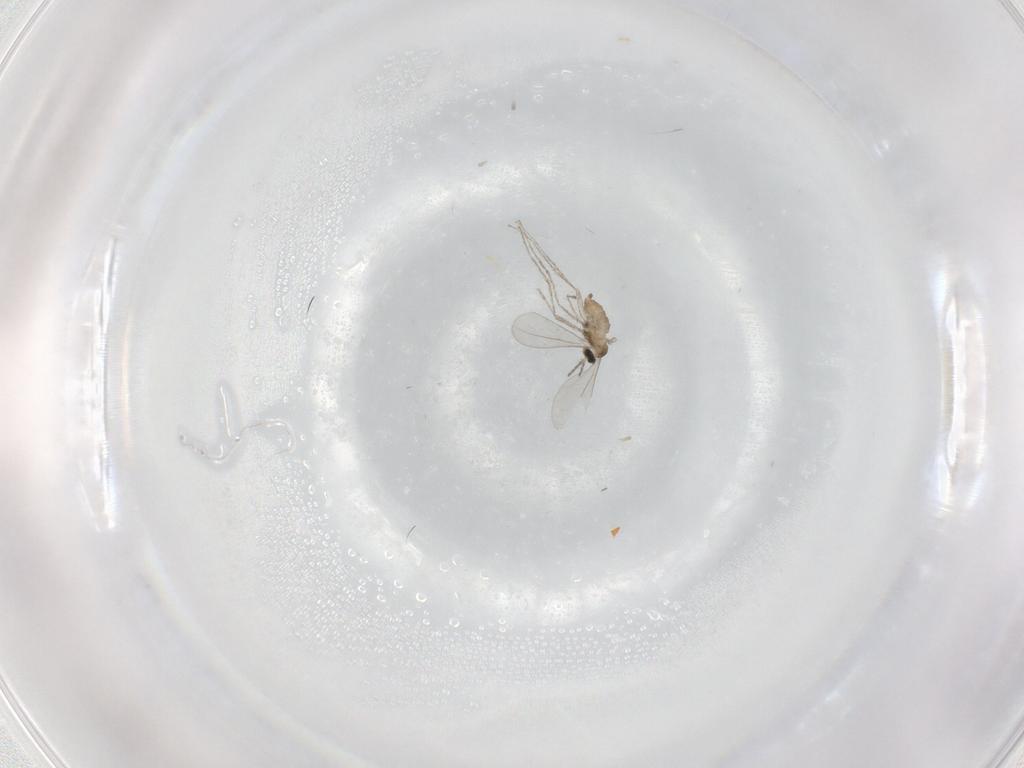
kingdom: Animalia
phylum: Arthropoda
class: Insecta
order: Diptera
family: Cecidomyiidae
